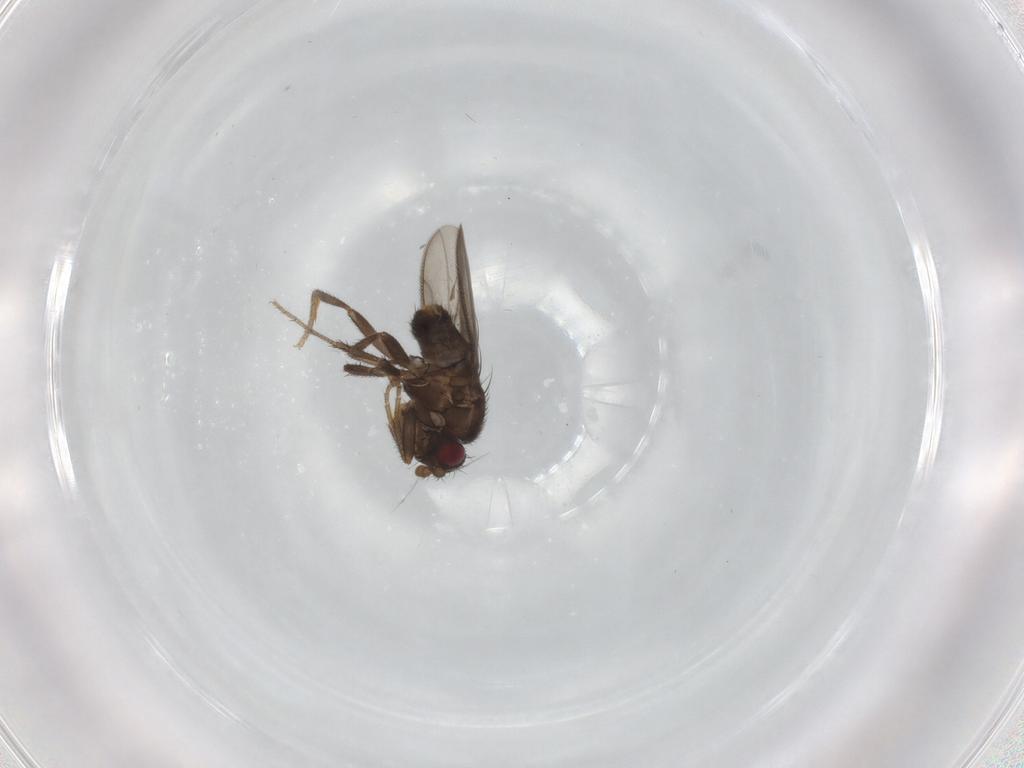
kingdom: Animalia
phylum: Arthropoda
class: Insecta
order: Diptera
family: Sphaeroceridae
